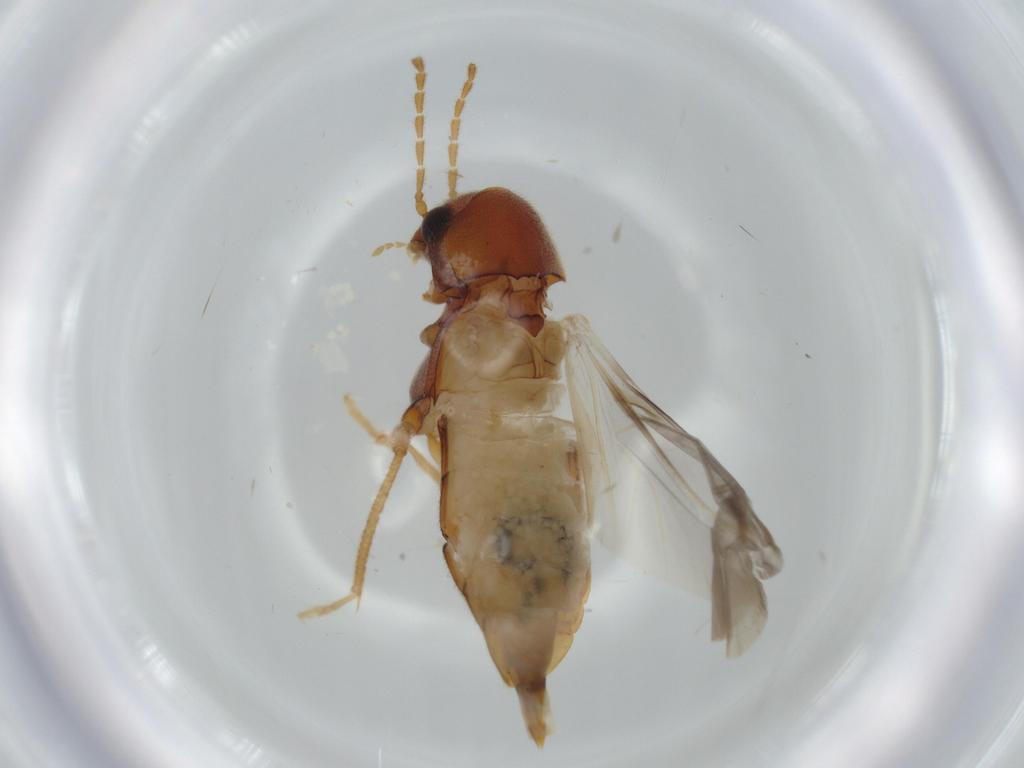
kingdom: Animalia
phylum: Arthropoda
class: Insecta
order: Coleoptera
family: Ptilodactylidae
